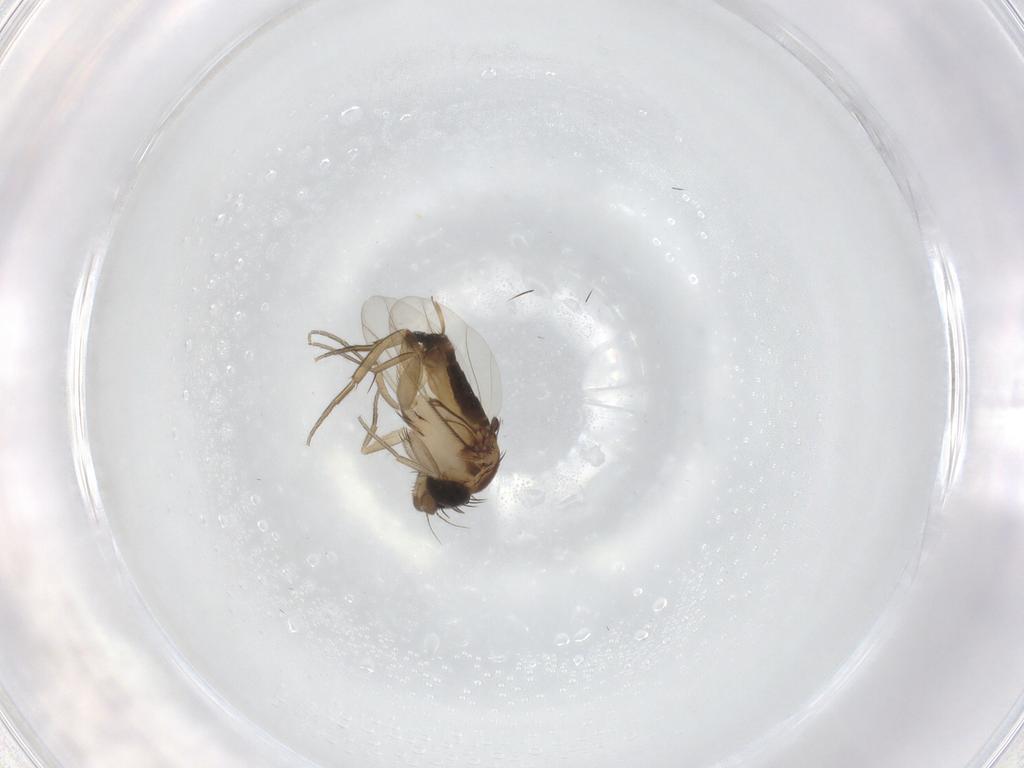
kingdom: Animalia
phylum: Arthropoda
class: Insecta
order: Diptera
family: Phoridae
